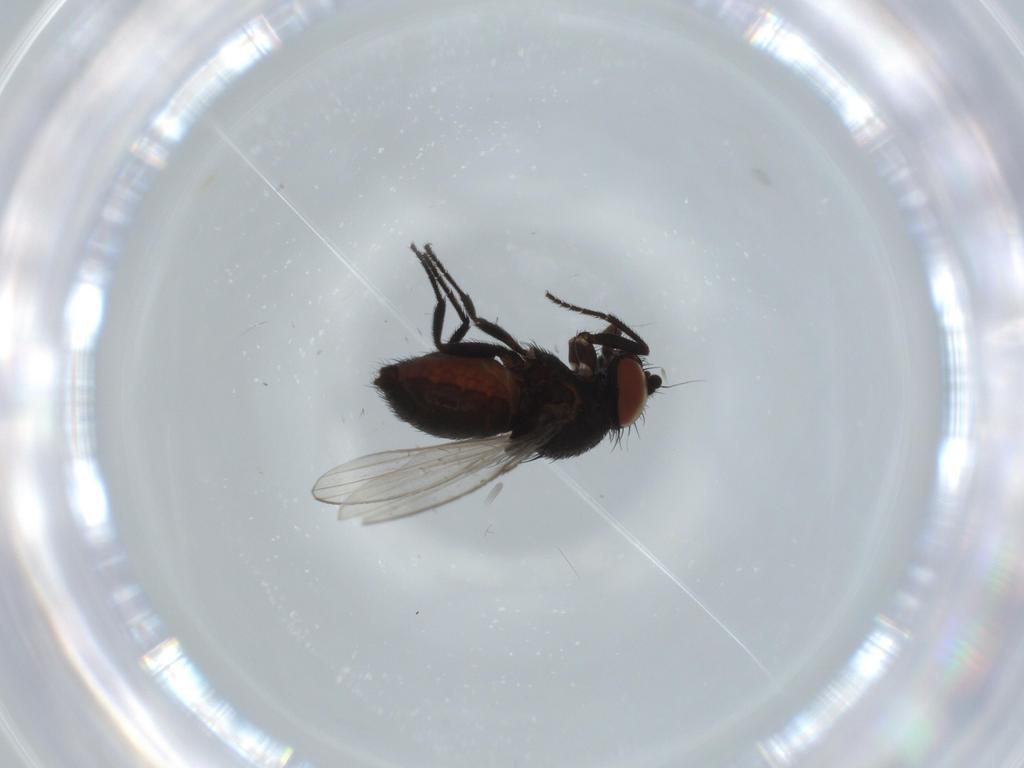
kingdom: Animalia
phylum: Arthropoda
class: Insecta
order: Diptera
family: Milichiidae
